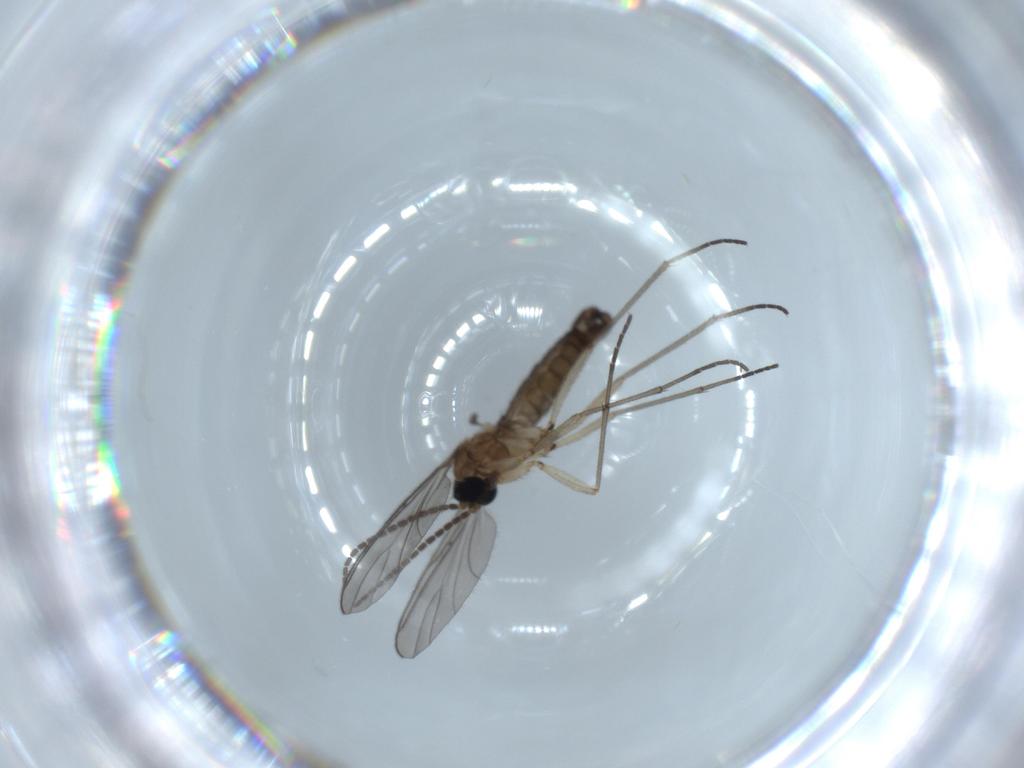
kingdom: Animalia
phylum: Arthropoda
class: Insecta
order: Diptera
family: Sciaridae
